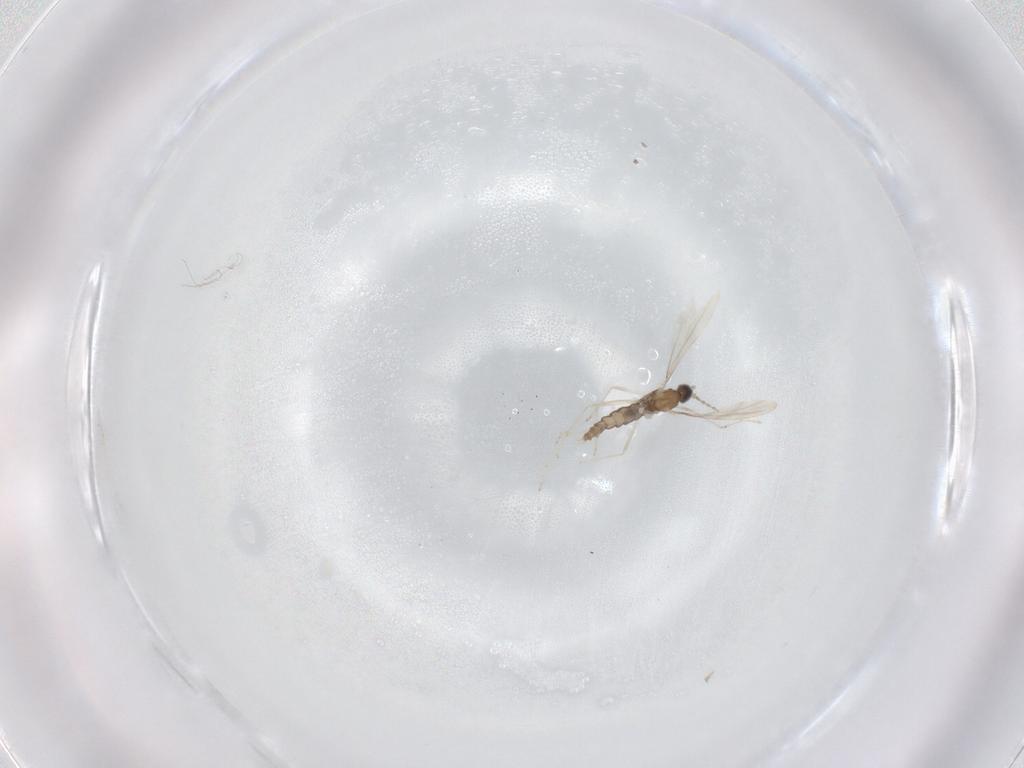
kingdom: Animalia
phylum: Arthropoda
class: Insecta
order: Diptera
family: Cecidomyiidae
